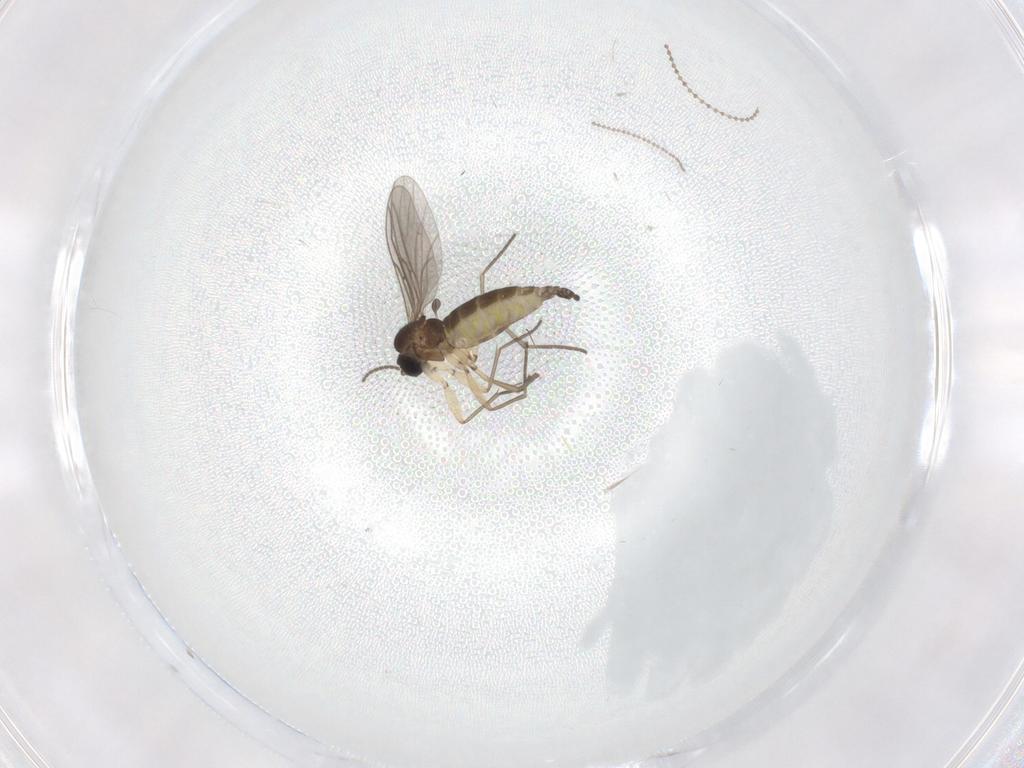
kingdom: Animalia
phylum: Arthropoda
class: Insecta
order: Diptera
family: Sciaridae
